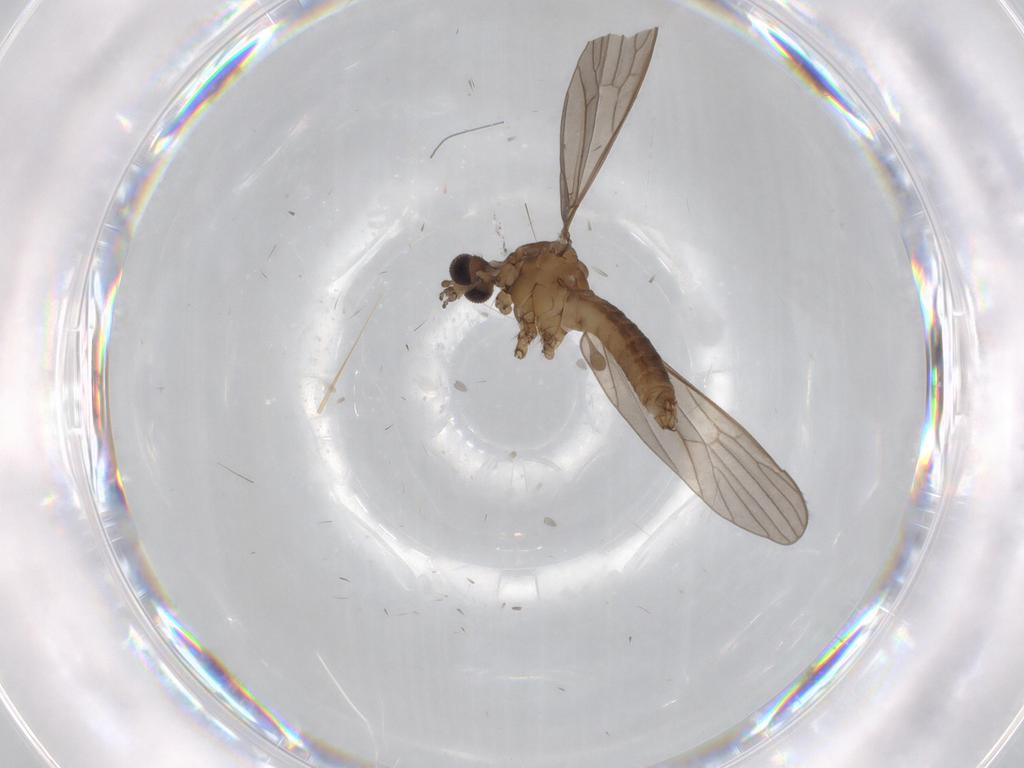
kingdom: Animalia
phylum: Arthropoda
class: Insecta
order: Diptera
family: Limoniidae
